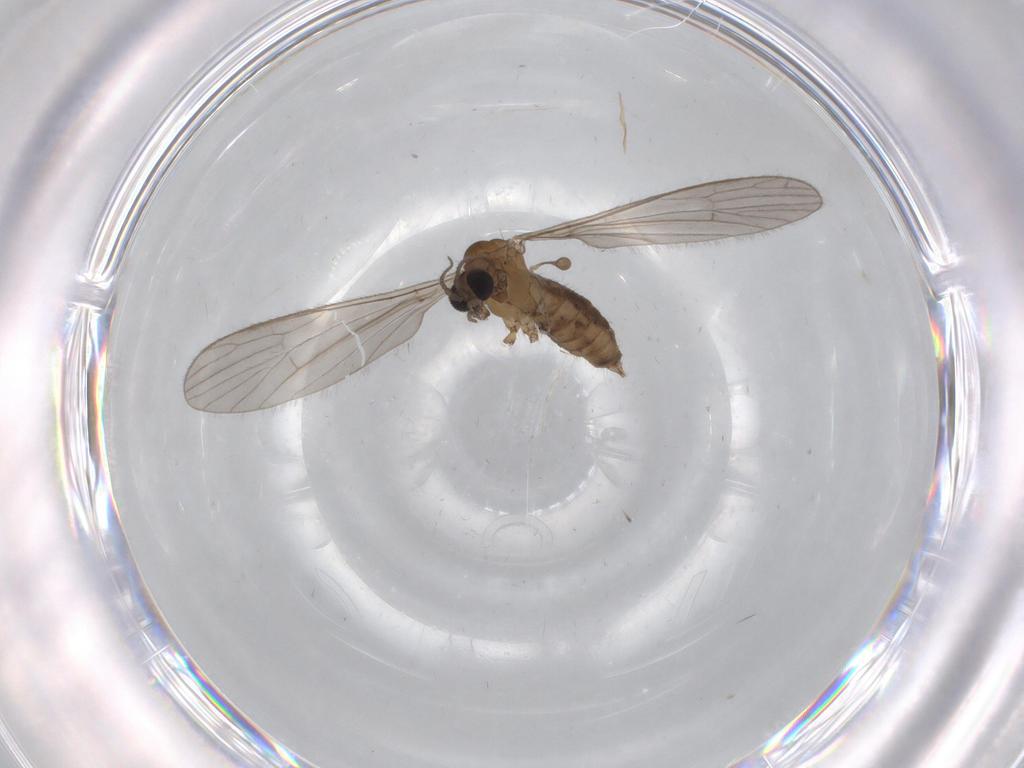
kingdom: Animalia
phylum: Arthropoda
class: Insecta
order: Diptera
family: Limoniidae
